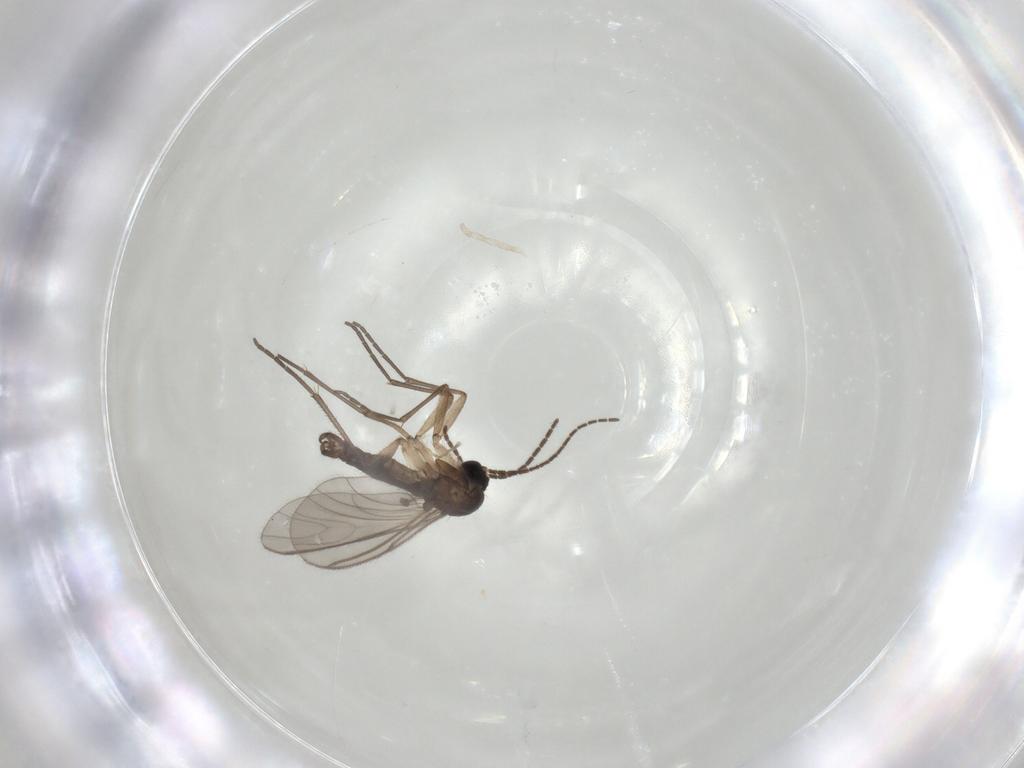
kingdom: Animalia
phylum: Arthropoda
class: Insecta
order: Diptera
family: Sciaridae
